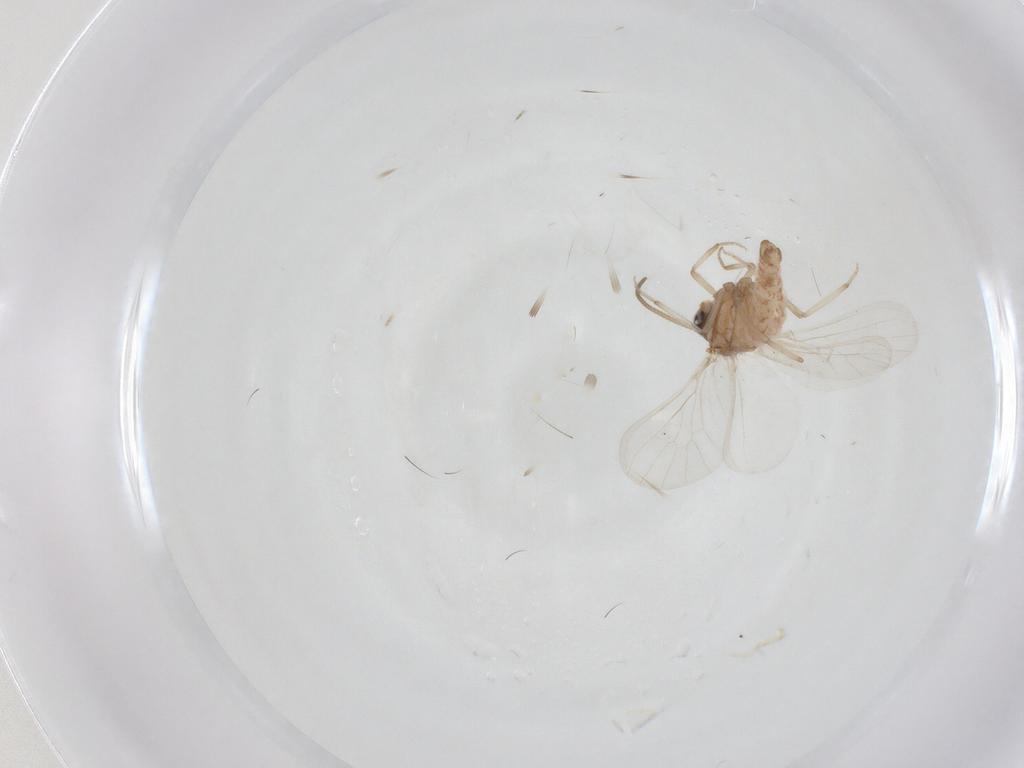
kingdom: Animalia
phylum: Arthropoda
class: Insecta
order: Neuroptera
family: Coniopterygidae
